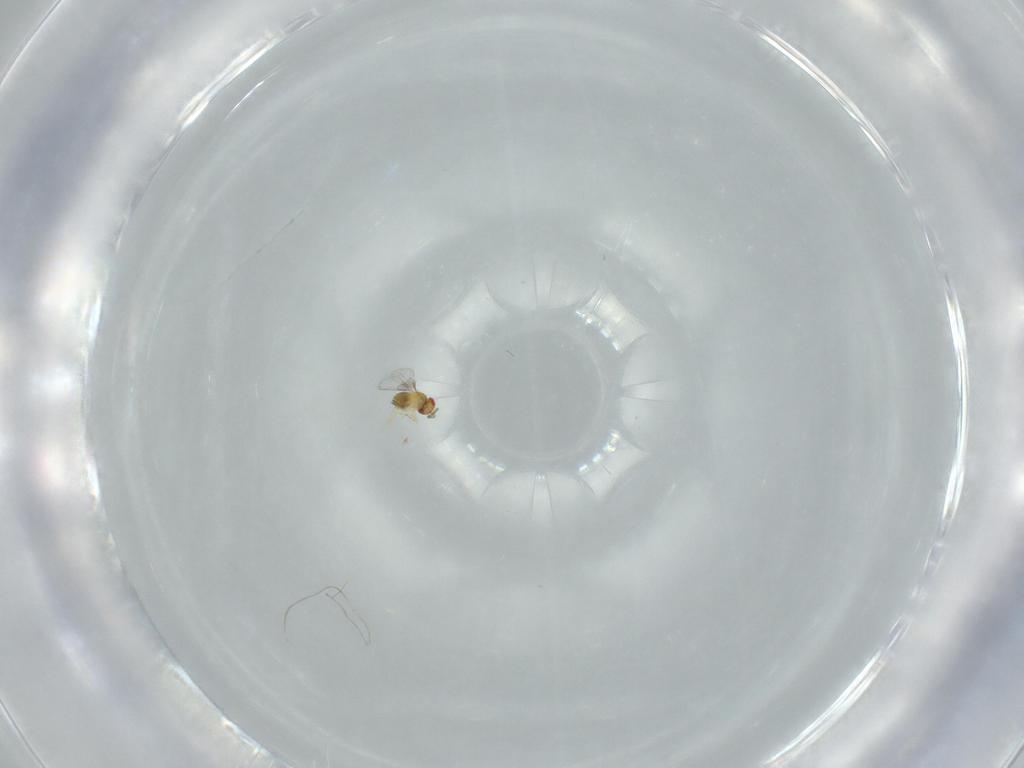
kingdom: Animalia
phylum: Arthropoda
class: Insecta
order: Hymenoptera
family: Trichogrammatidae
